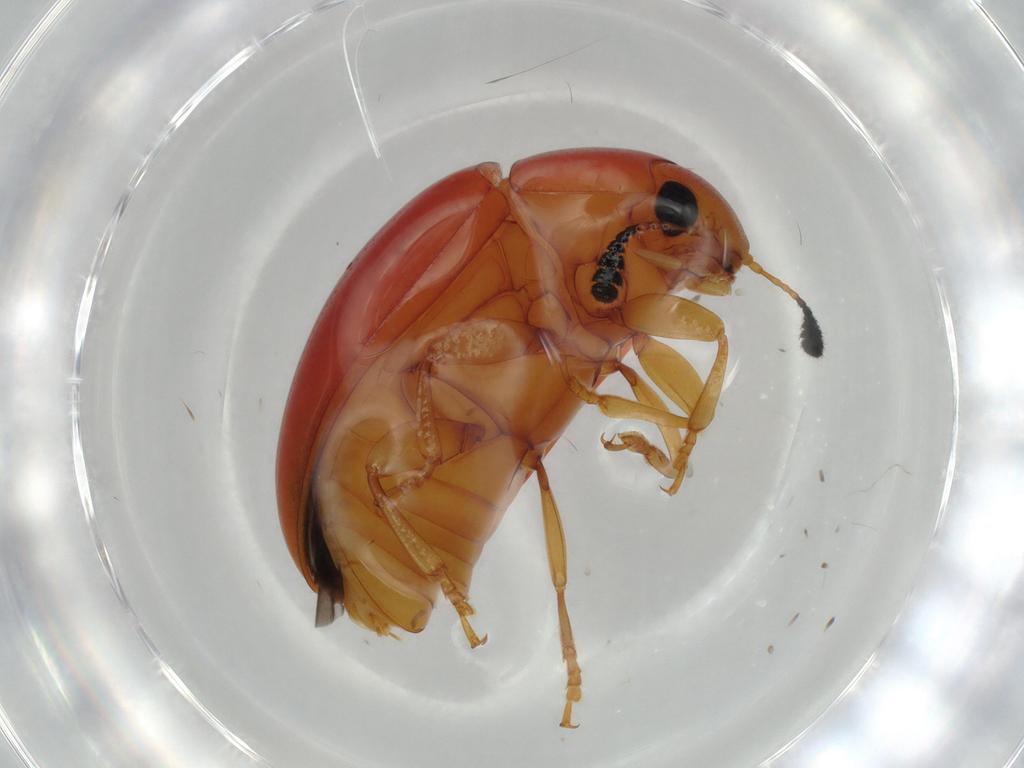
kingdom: Animalia
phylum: Arthropoda
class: Insecta
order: Coleoptera
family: Erotylidae
